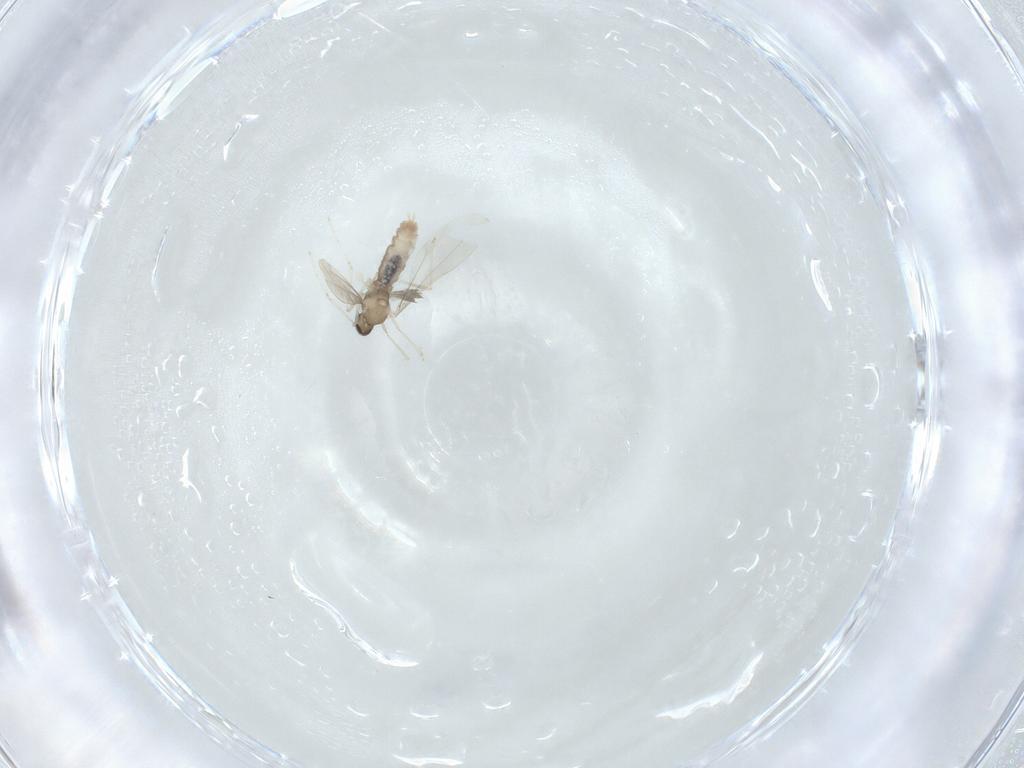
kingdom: Animalia
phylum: Arthropoda
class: Insecta
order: Diptera
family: Cecidomyiidae
